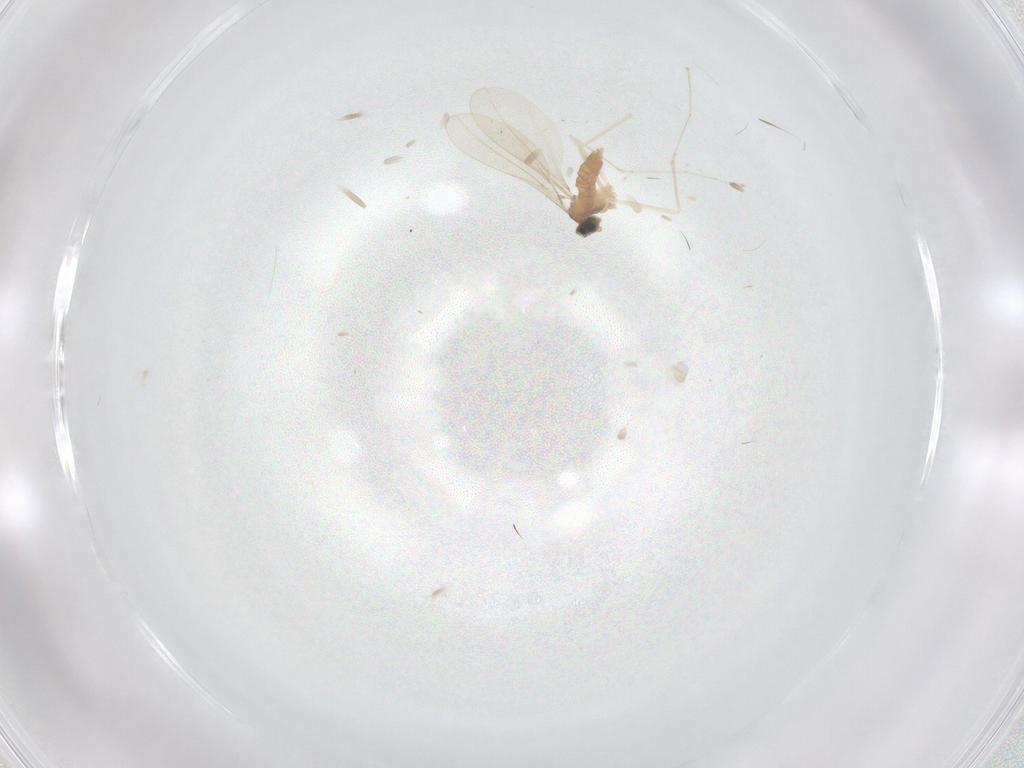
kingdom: Animalia
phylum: Arthropoda
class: Insecta
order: Diptera
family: Cecidomyiidae
